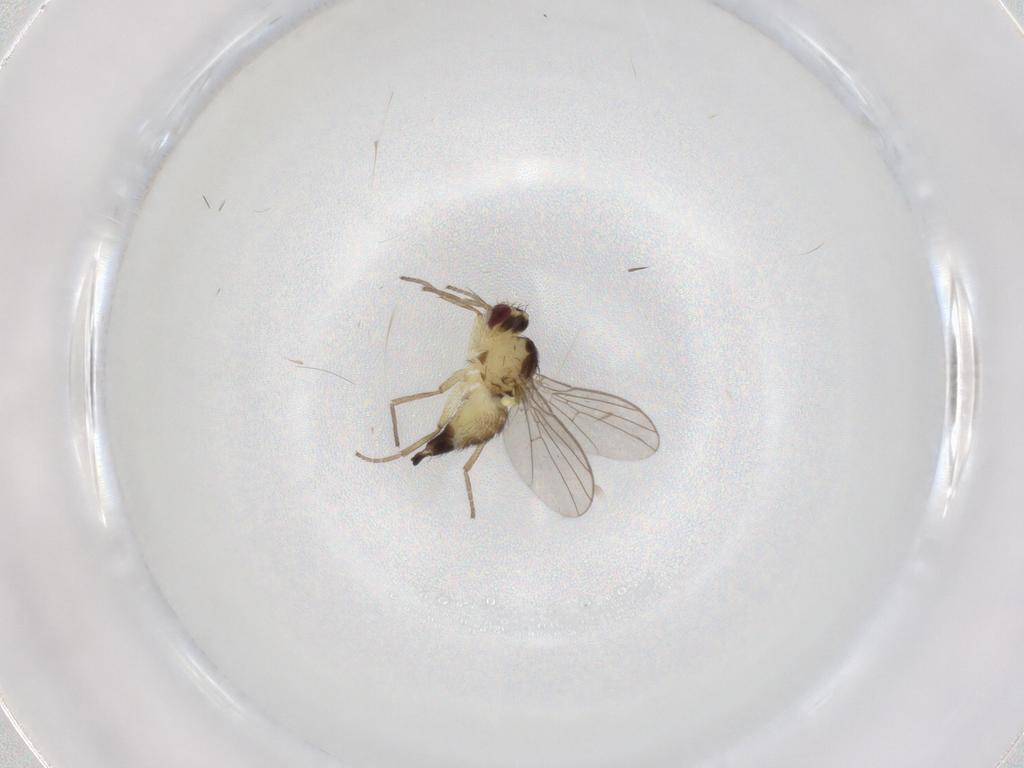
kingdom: Animalia
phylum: Arthropoda
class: Insecta
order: Diptera
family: Agromyzidae
